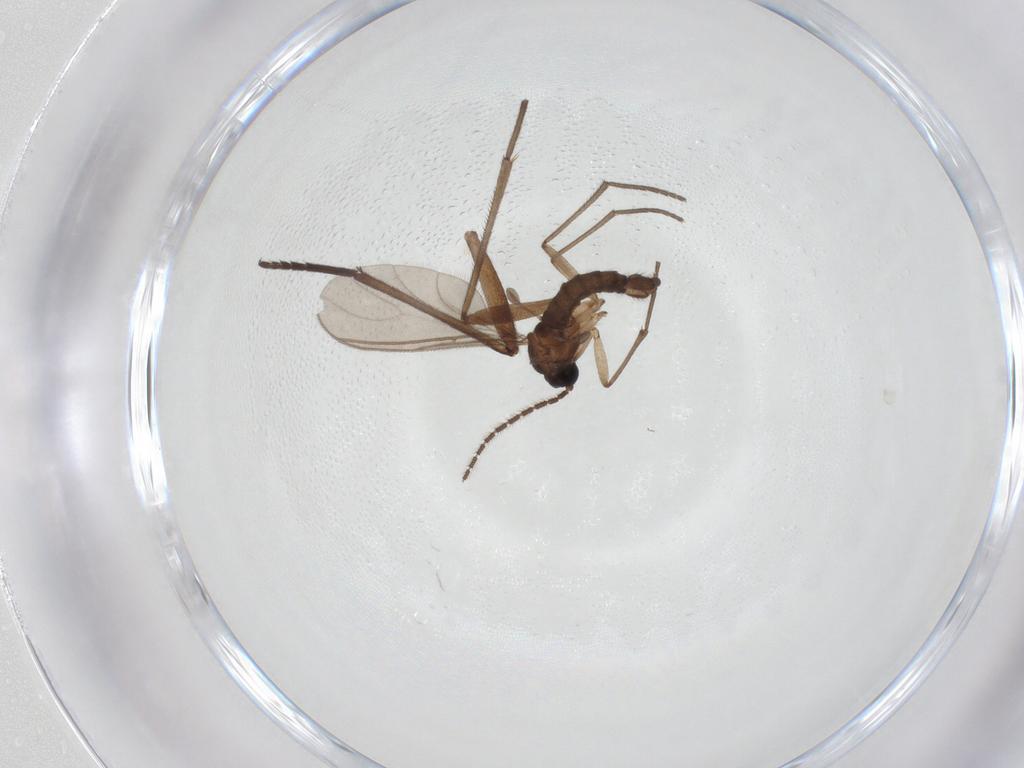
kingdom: Animalia
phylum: Arthropoda
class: Insecta
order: Diptera
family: Sciaridae
